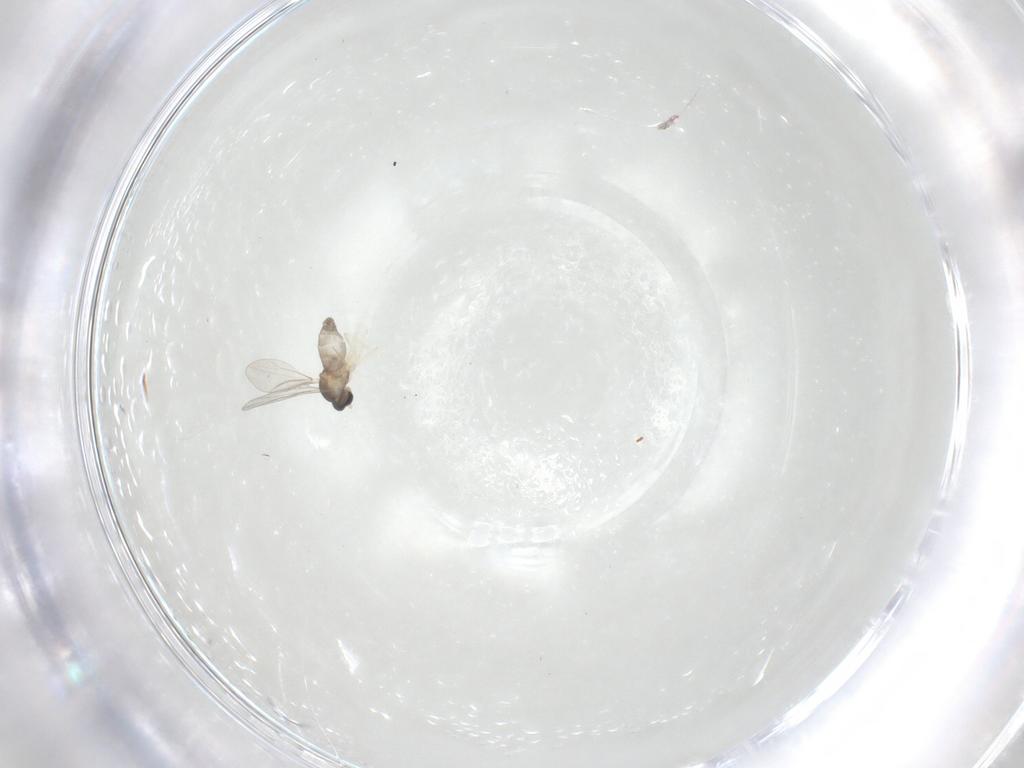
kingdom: Animalia
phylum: Arthropoda
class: Insecta
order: Diptera
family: Cecidomyiidae
